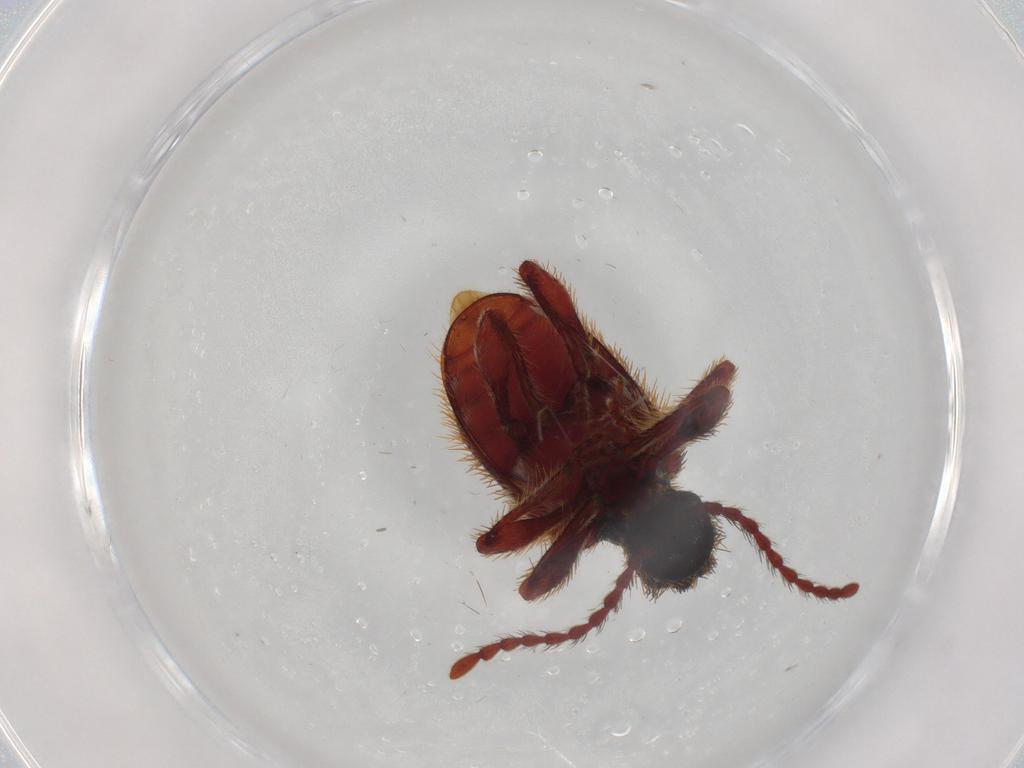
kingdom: Animalia
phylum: Arthropoda
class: Insecta
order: Coleoptera
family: Ptinidae
